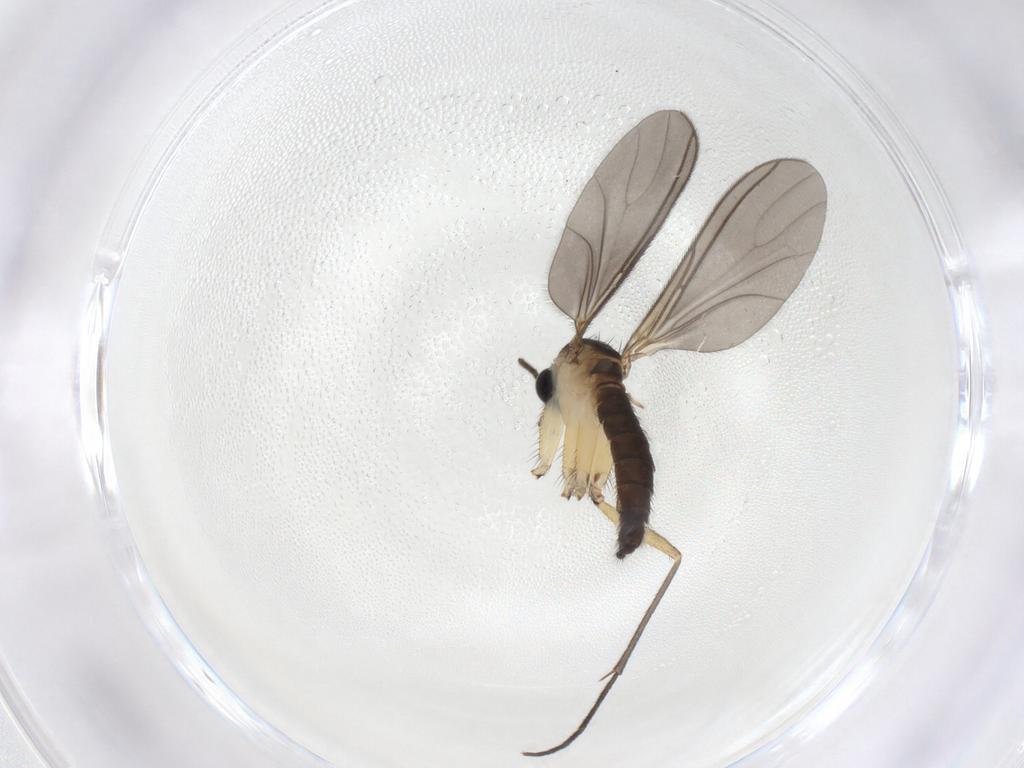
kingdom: Animalia
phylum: Arthropoda
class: Insecta
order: Diptera
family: Sciaridae
